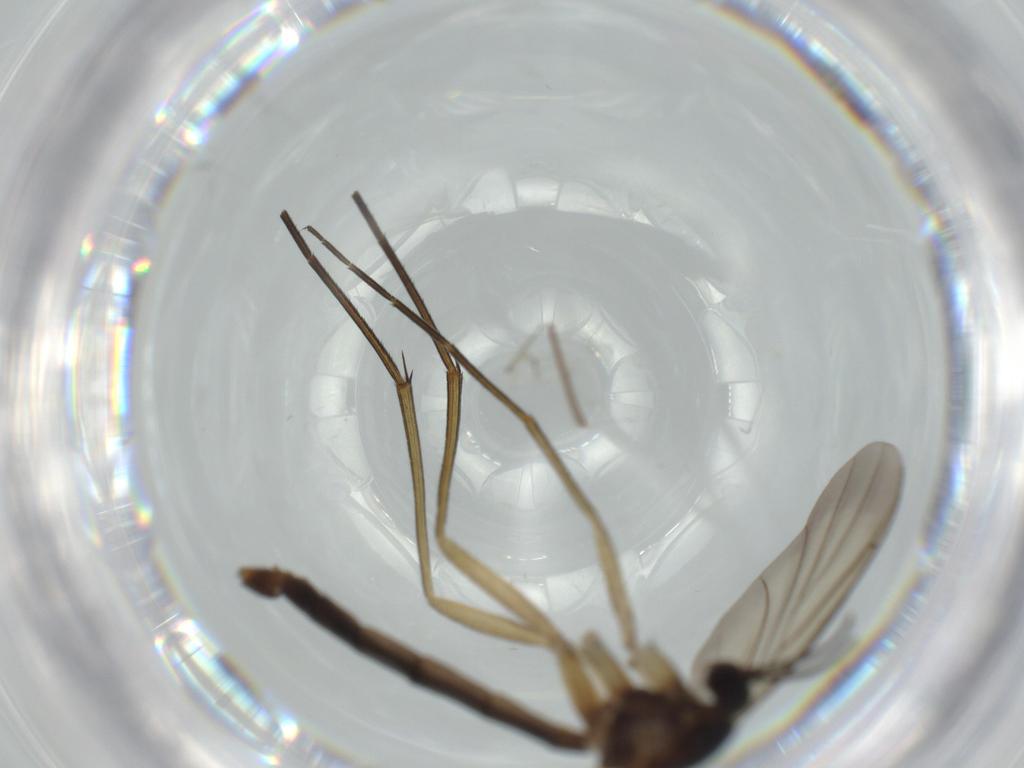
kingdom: Animalia
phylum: Arthropoda
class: Insecta
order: Diptera
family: Keroplatidae
